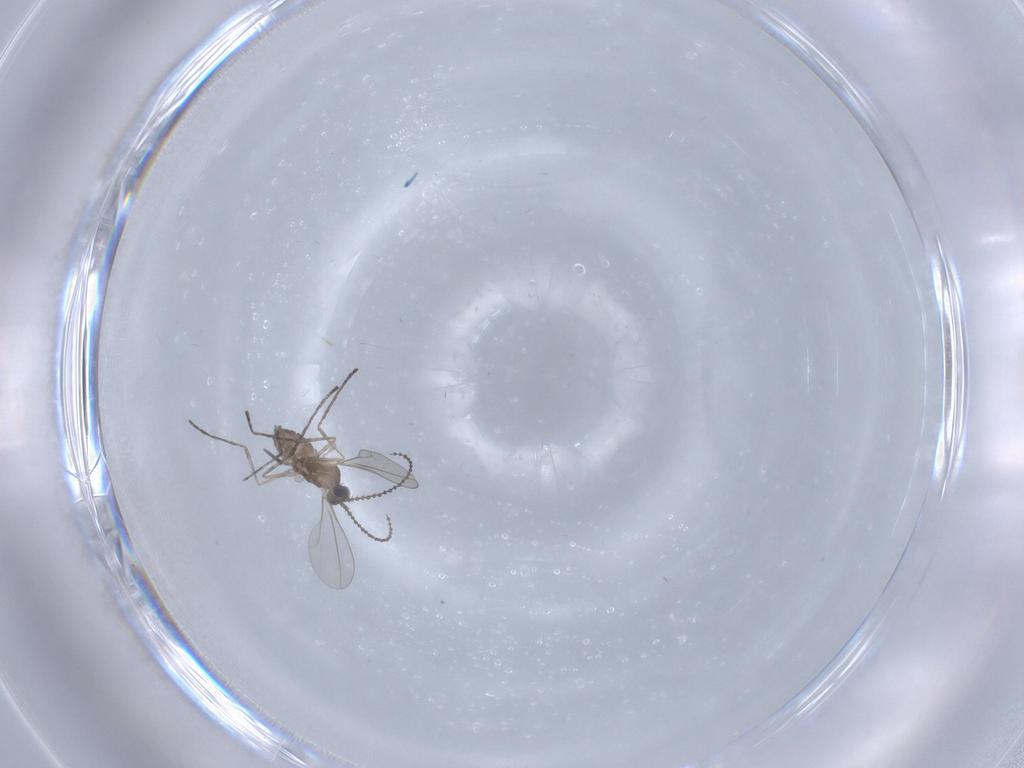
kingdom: Animalia
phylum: Arthropoda
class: Insecta
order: Diptera
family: Cecidomyiidae
